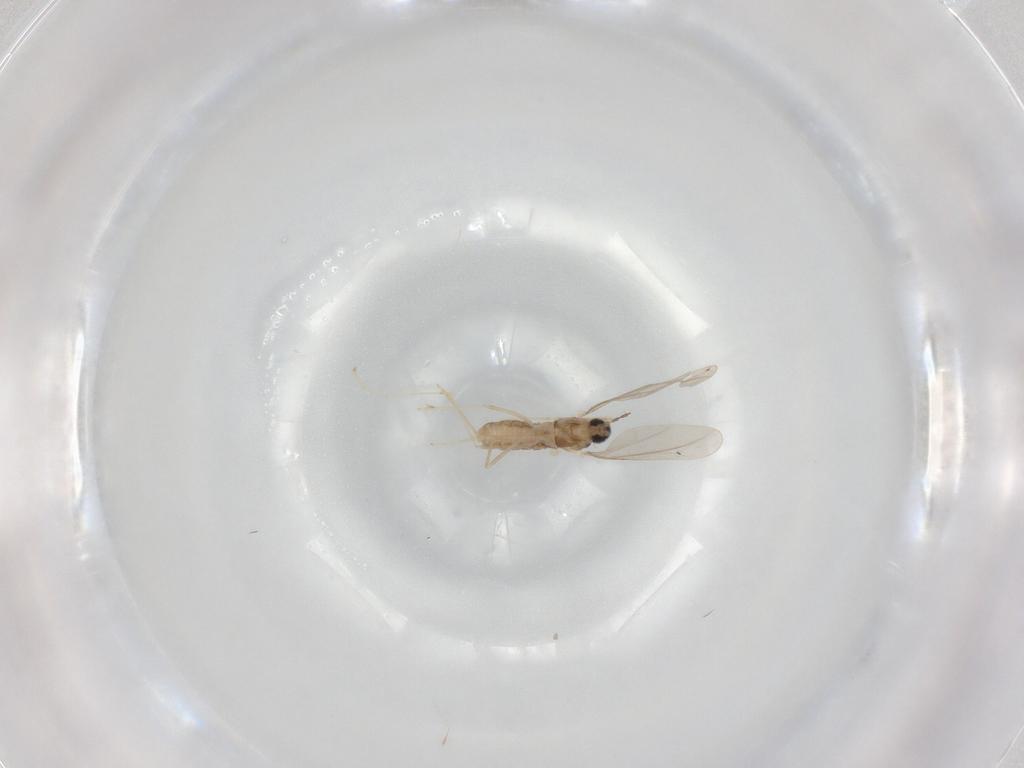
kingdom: Animalia
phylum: Arthropoda
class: Insecta
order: Diptera
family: Cecidomyiidae
